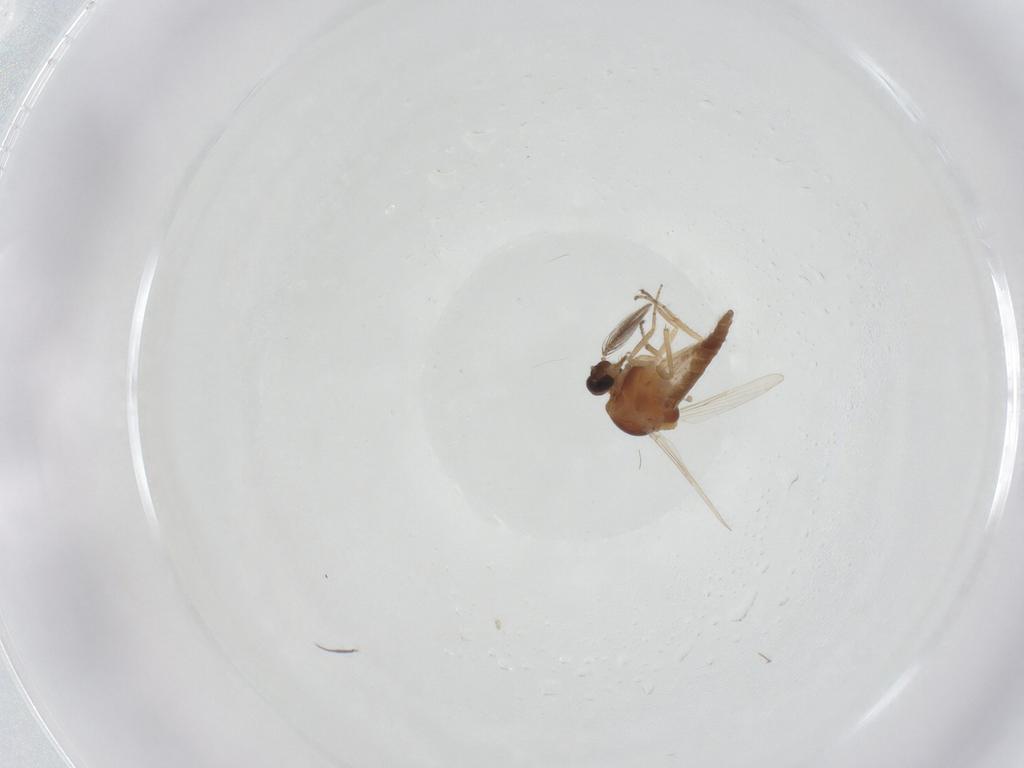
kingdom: Animalia
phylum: Arthropoda
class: Insecta
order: Diptera
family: Ceratopogonidae
